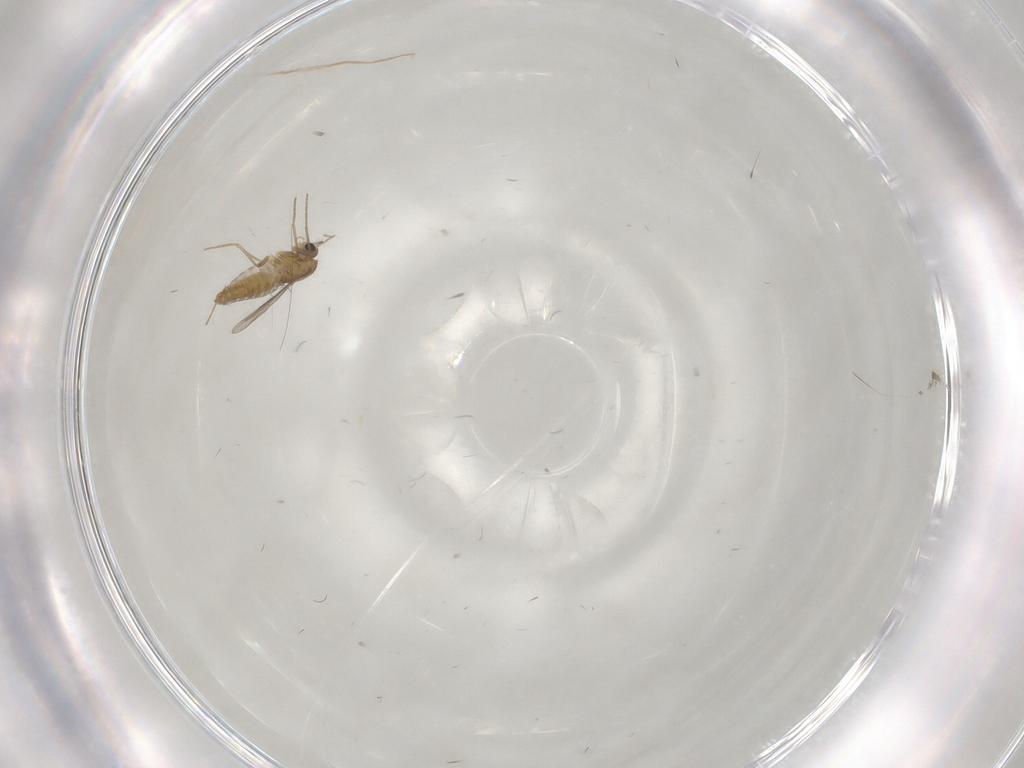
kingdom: Animalia
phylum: Arthropoda
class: Insecta
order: Diptera
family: Chironomidae
